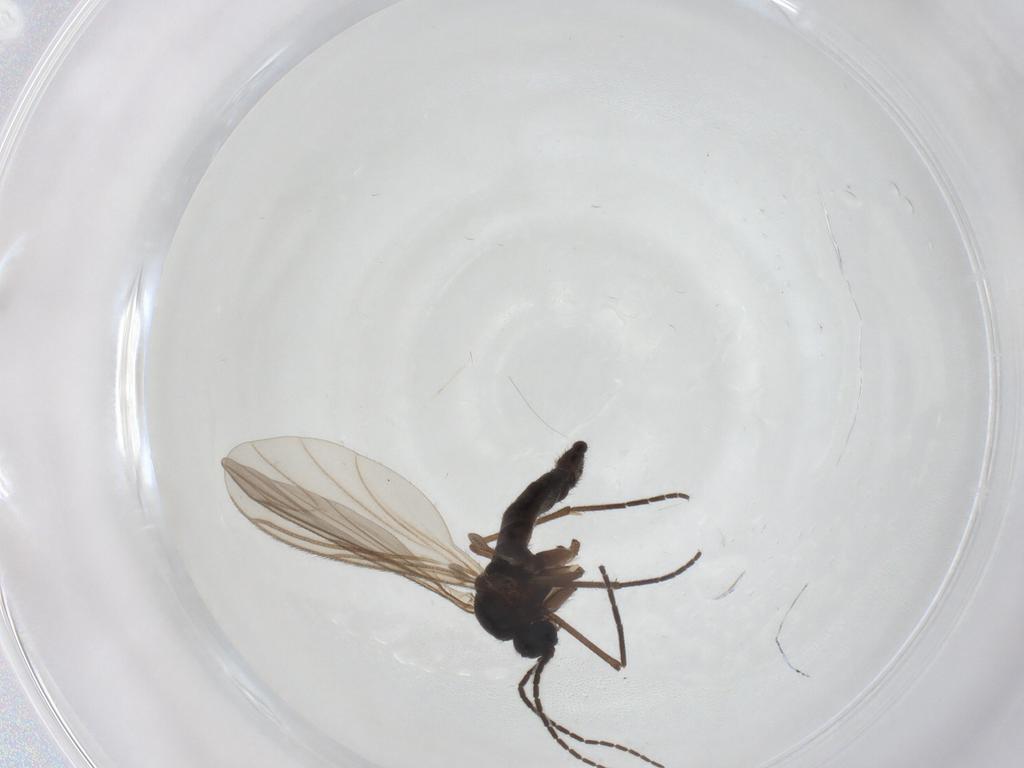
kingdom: Animalia
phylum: Arthropoda
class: Insecta
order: Diptera
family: Sciaridae
